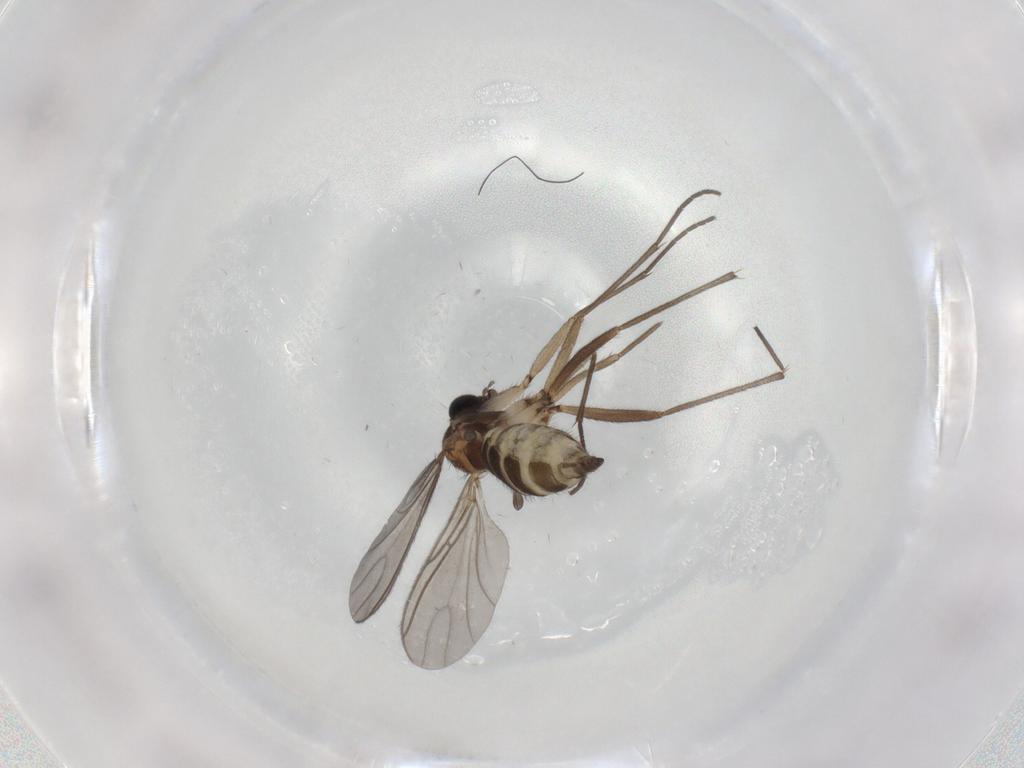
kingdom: Animalia
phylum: Arthropoda
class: Insecta
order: Diptera
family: Sciaridae
